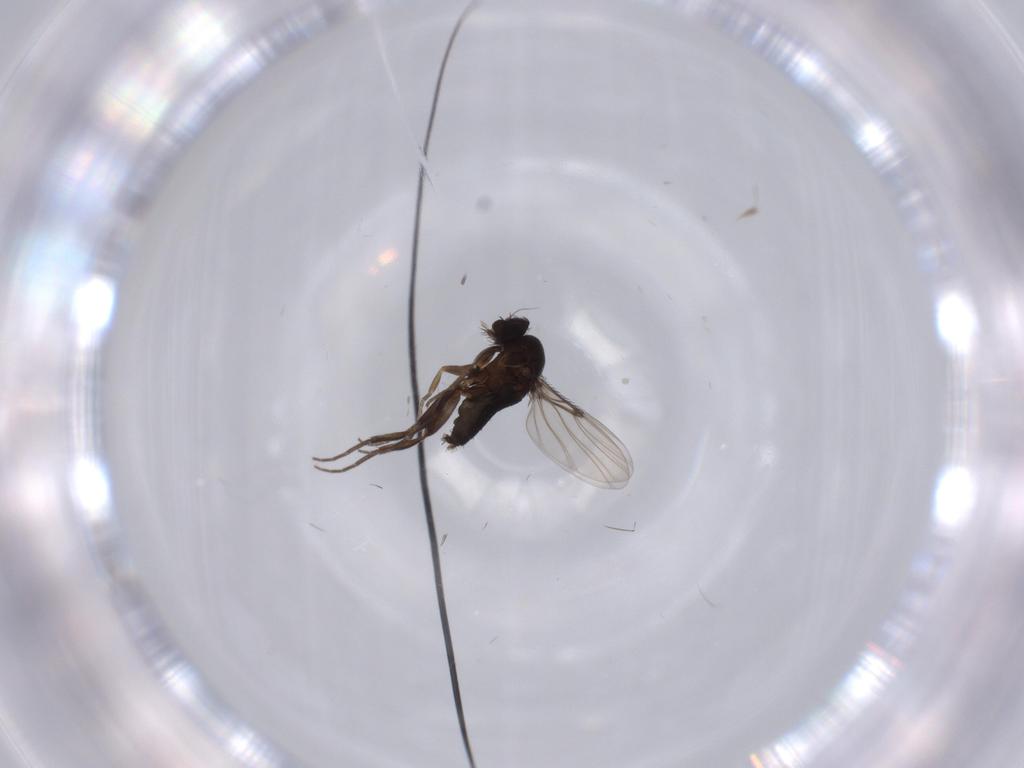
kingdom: Animalia
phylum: Arthropoda
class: Insecta
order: Diptera
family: Phoridae
